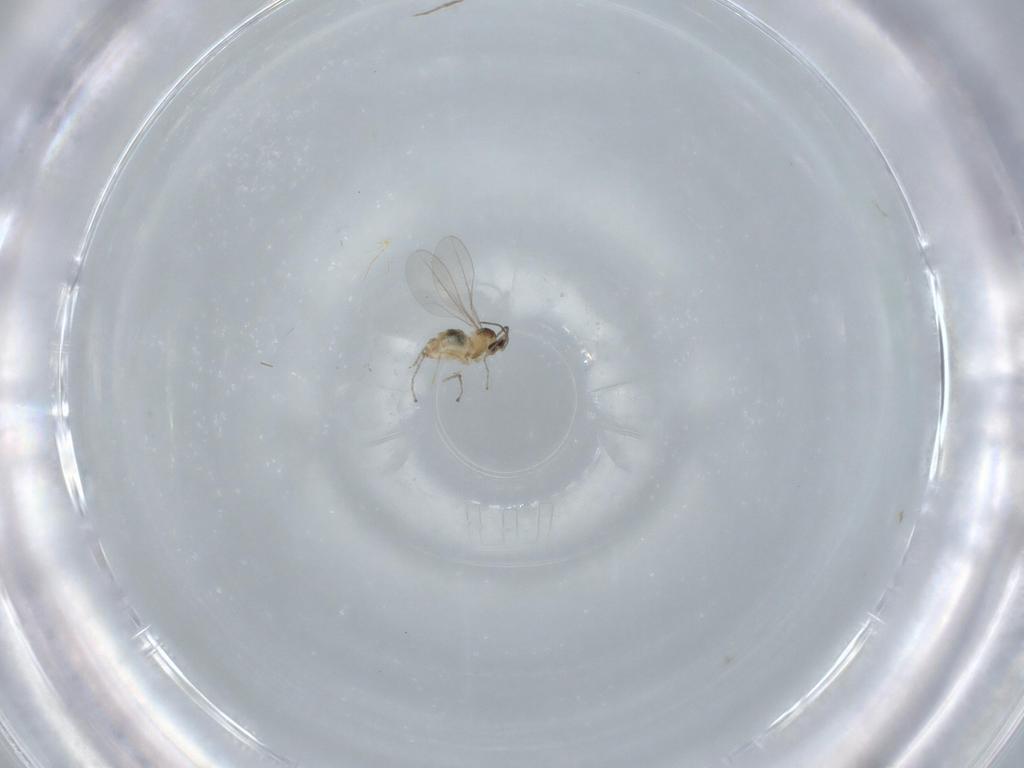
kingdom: Animalia
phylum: Arthropoda
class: Insecta
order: Diptera
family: Cecidomyiidae
